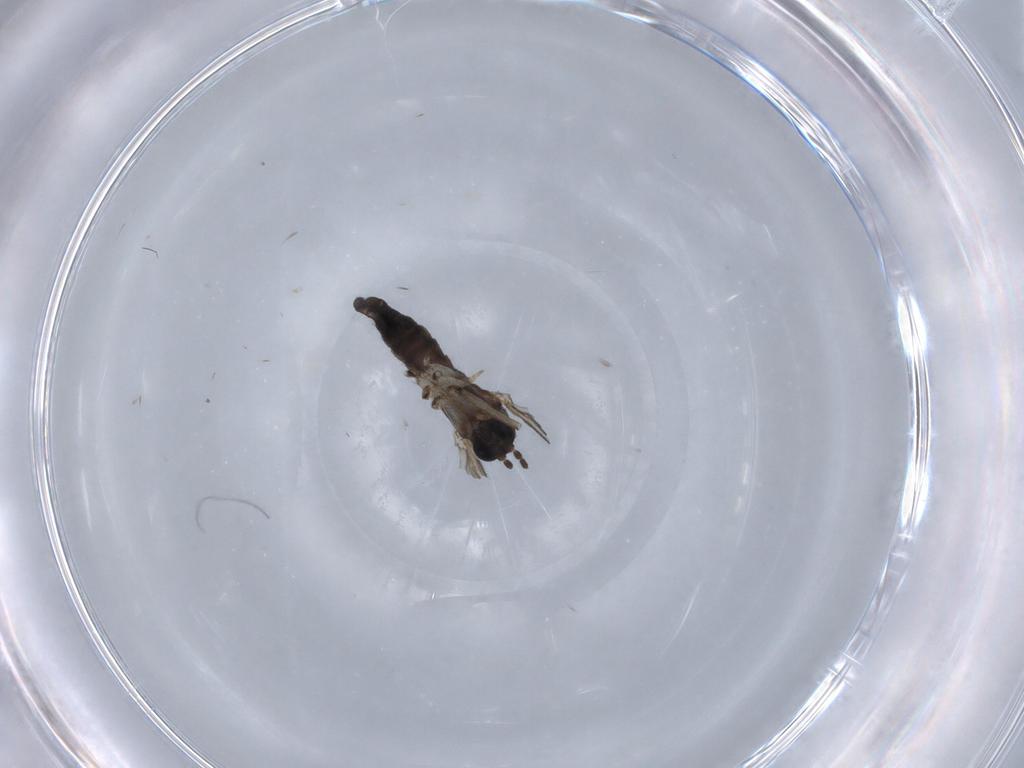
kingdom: Animalia
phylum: Arthropoda
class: Insecta
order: Diptera
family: Sciaridae
